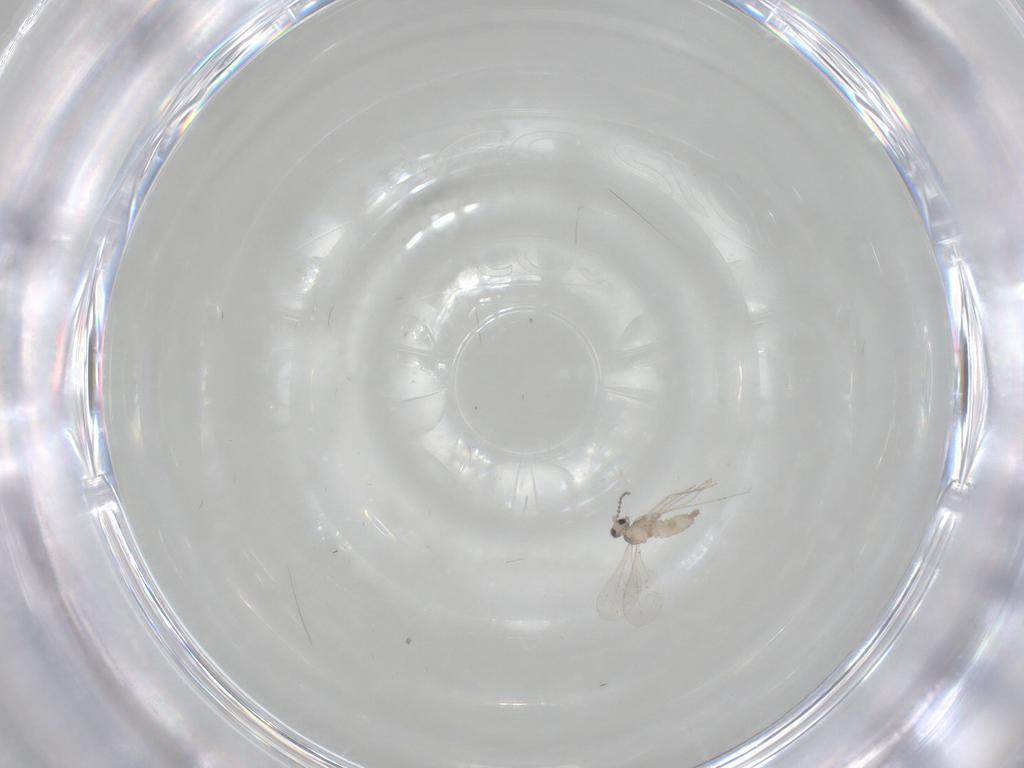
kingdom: Animalia
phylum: Arthropoda
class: Insecta
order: Diptera
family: Cecidomyiidae
